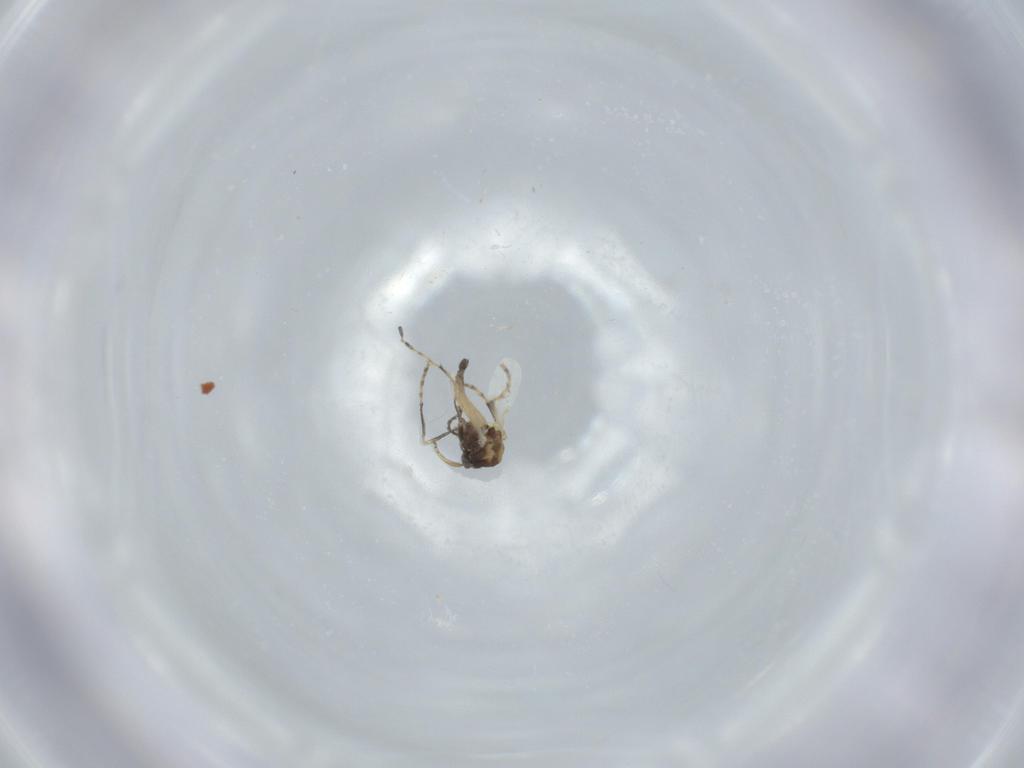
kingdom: Animalia
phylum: Arthropoda
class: Insecta
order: Diptera
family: Ceratopogonidae
